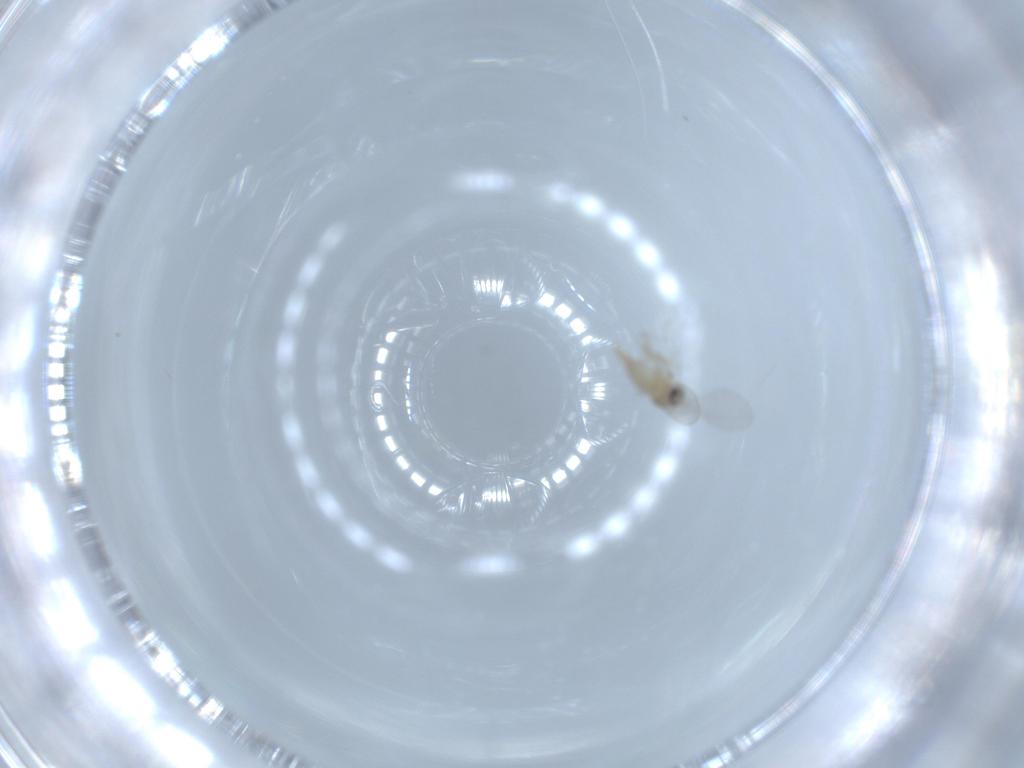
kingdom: Animalia
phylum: Arthropoda
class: Insecta
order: Diptera
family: Cecidomyiidae
